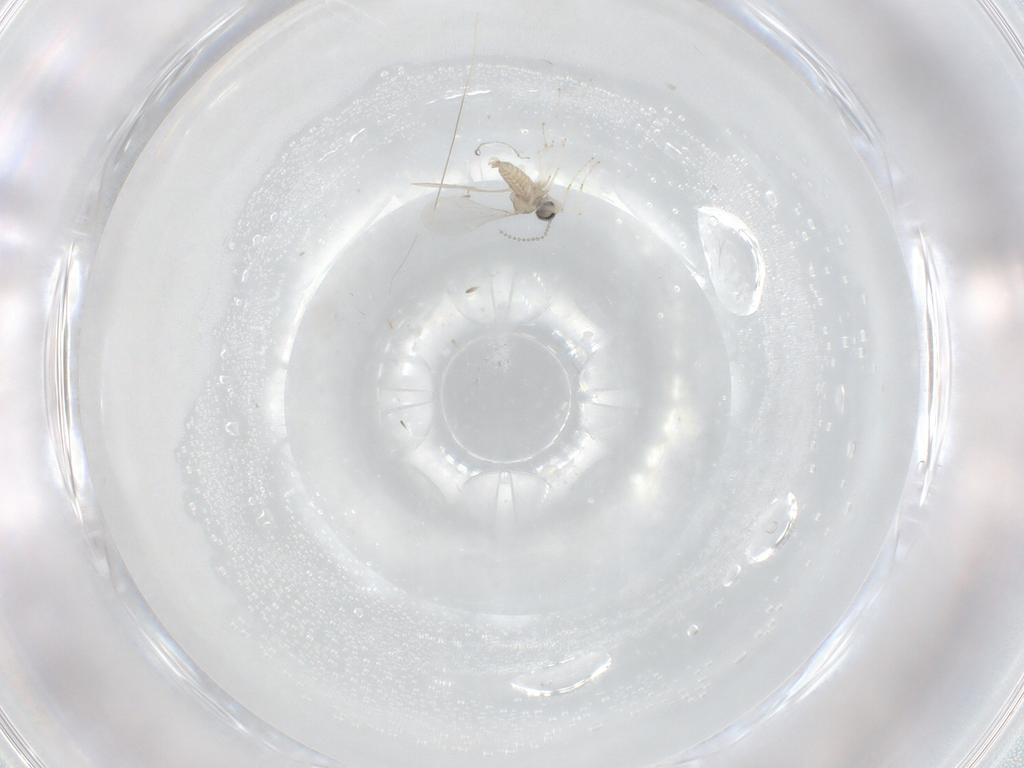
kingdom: Animalia
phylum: Arthropoda
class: Insecta
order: Diptera
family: Cecidomyiidae
